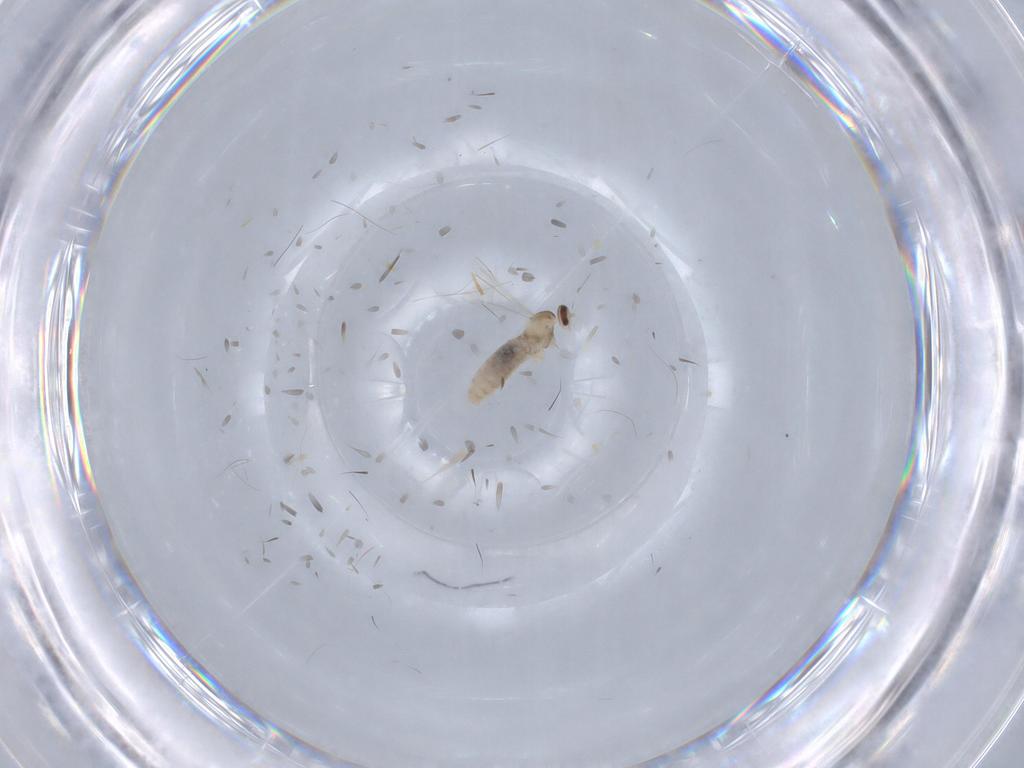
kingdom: Animalia
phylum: Arthropoda
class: Insecta
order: Diptera
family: Cecidomyiidae
